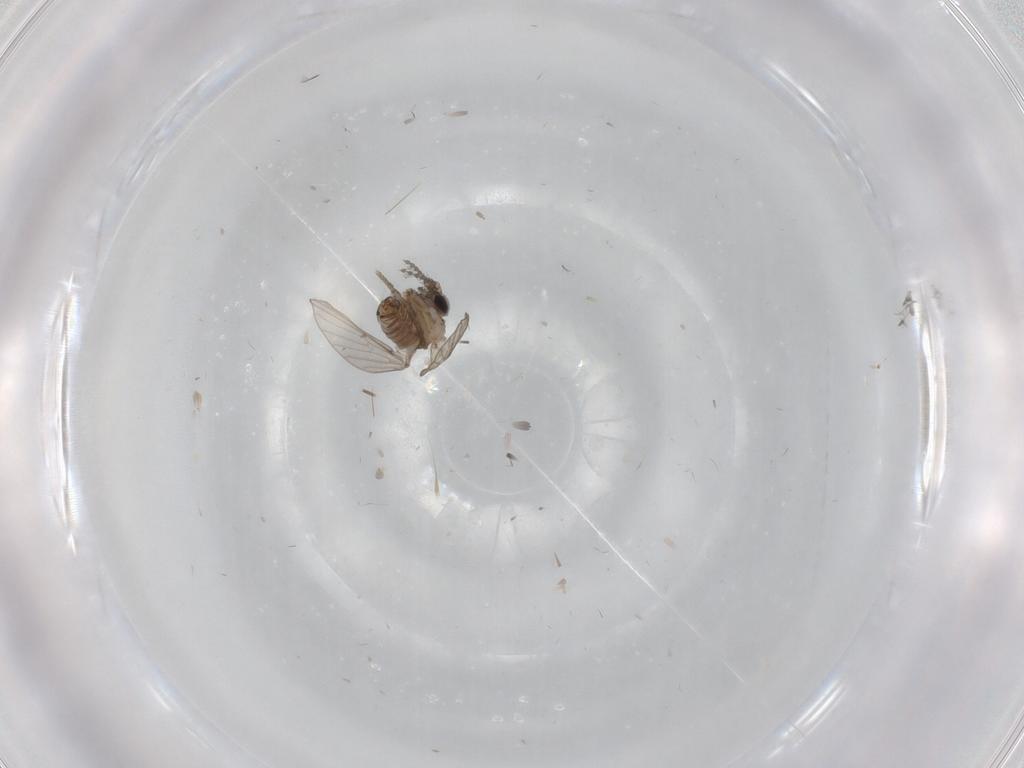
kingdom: Animalia
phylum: Arthropoda
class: Insecta
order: Diptera
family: Psychodidae
